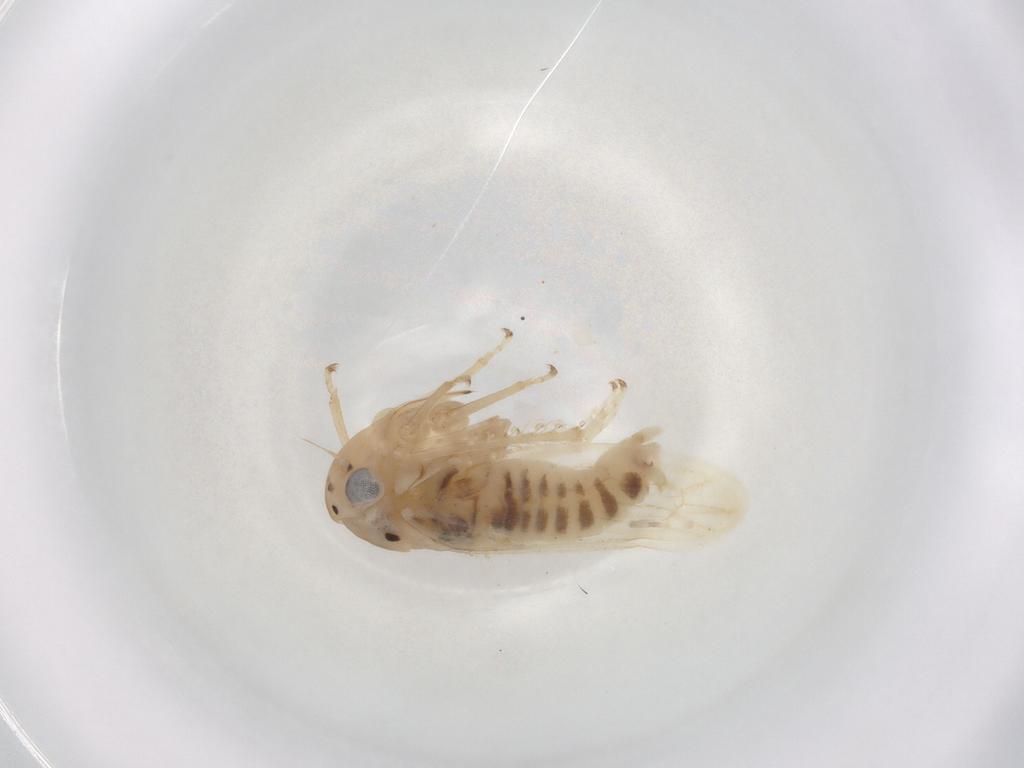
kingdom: Animalia
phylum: Arthropoda
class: Insecta
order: Hemiptera
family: Cicadellidae
